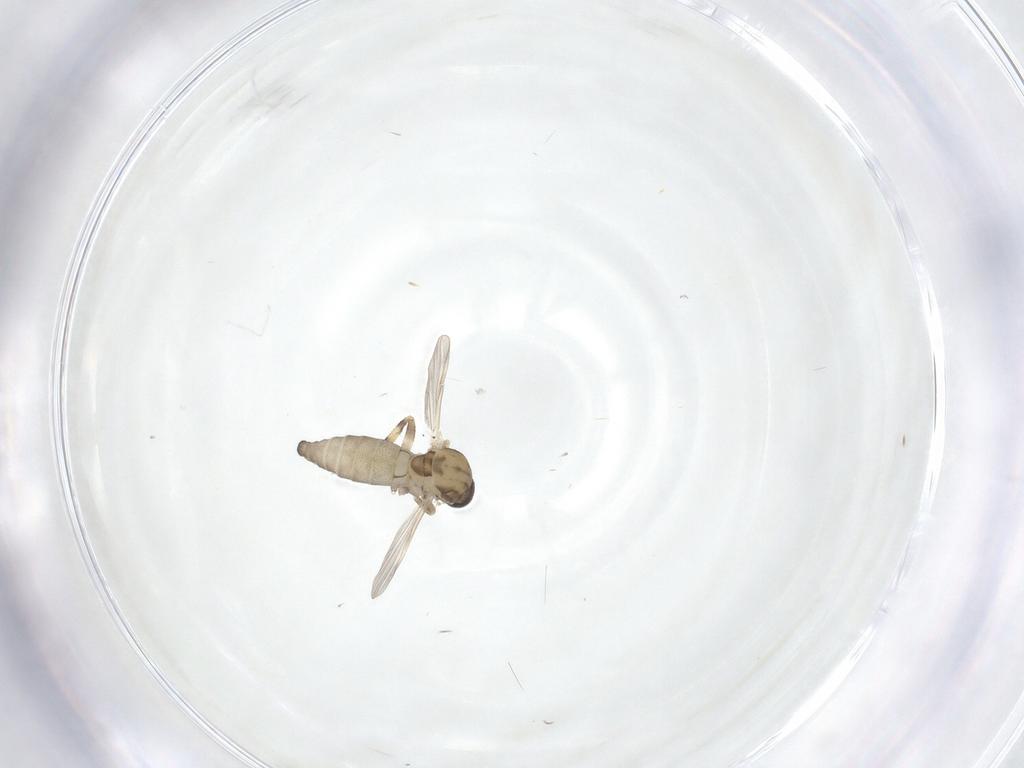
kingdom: Animalia
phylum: Arthropoda
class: Insecta
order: Diptera
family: Ceratopogonidae
